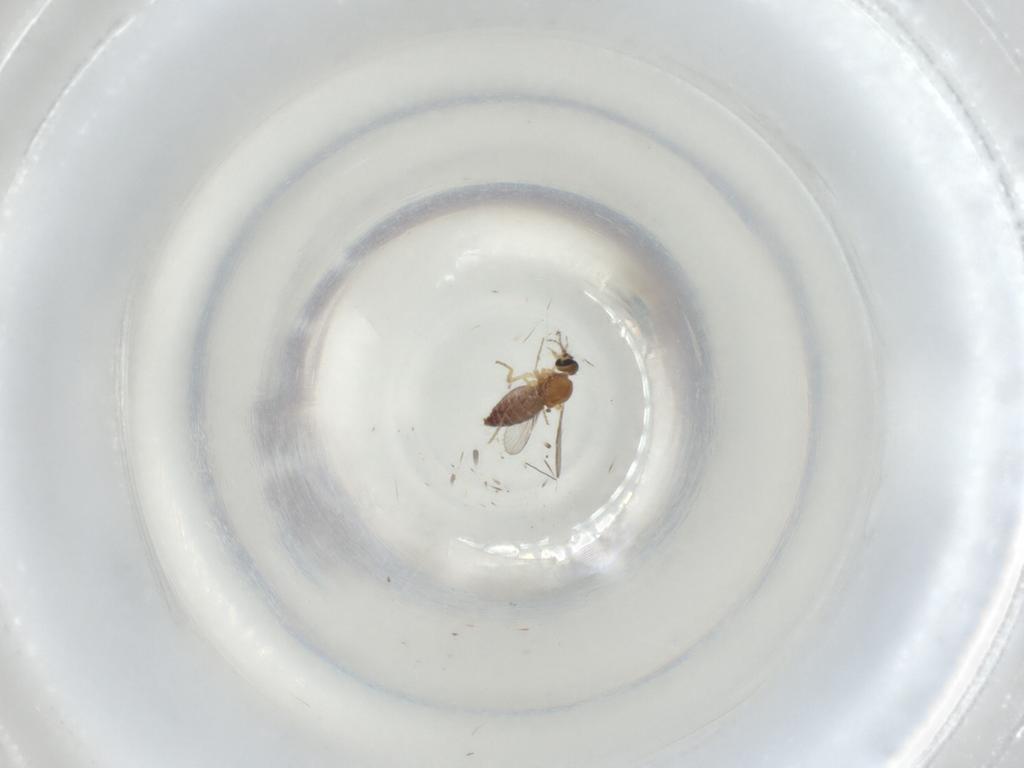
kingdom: Animalia
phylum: Arthropoda
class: Insecta
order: Diptera
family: Ceratopogonidae
